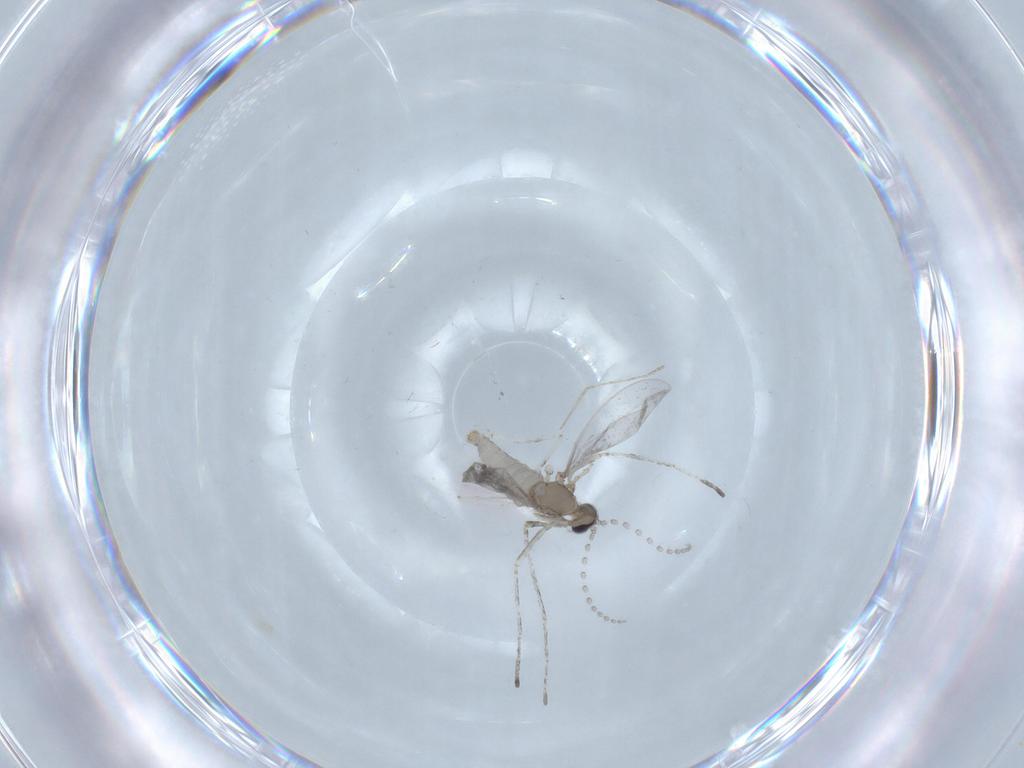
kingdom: Animalia
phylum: Arthropoda
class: Insecta
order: Diptera
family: Cecidomyiidae
